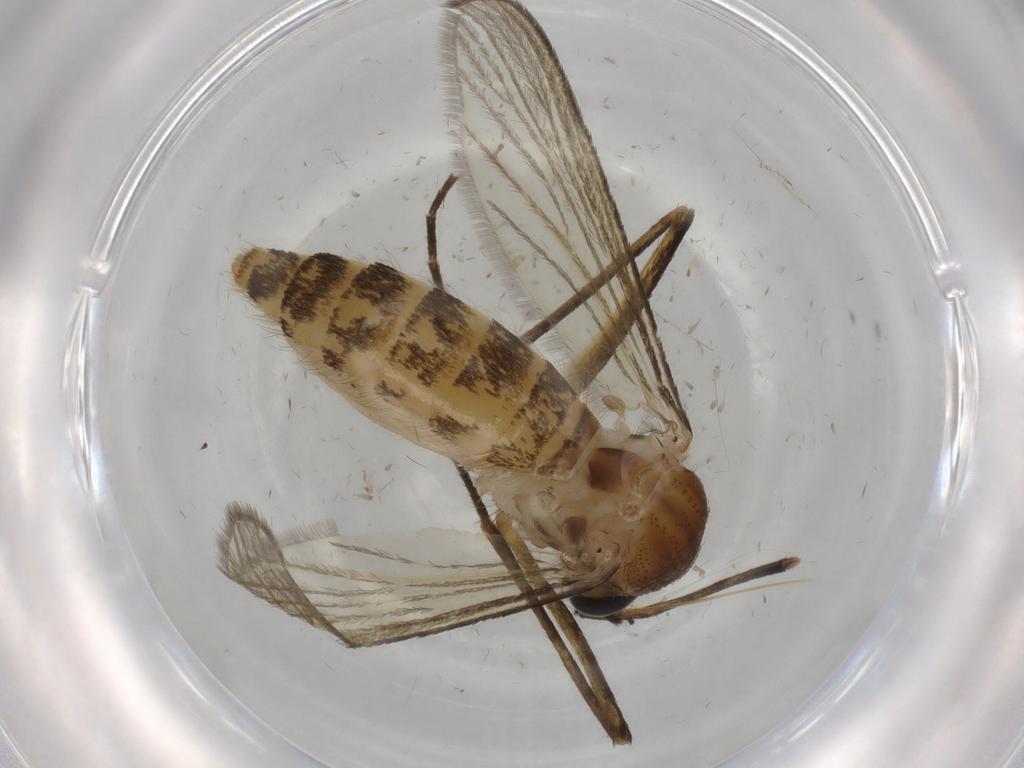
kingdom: Animalia
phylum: Arthropoda
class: Insecta
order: Diptera
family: Culicidae
